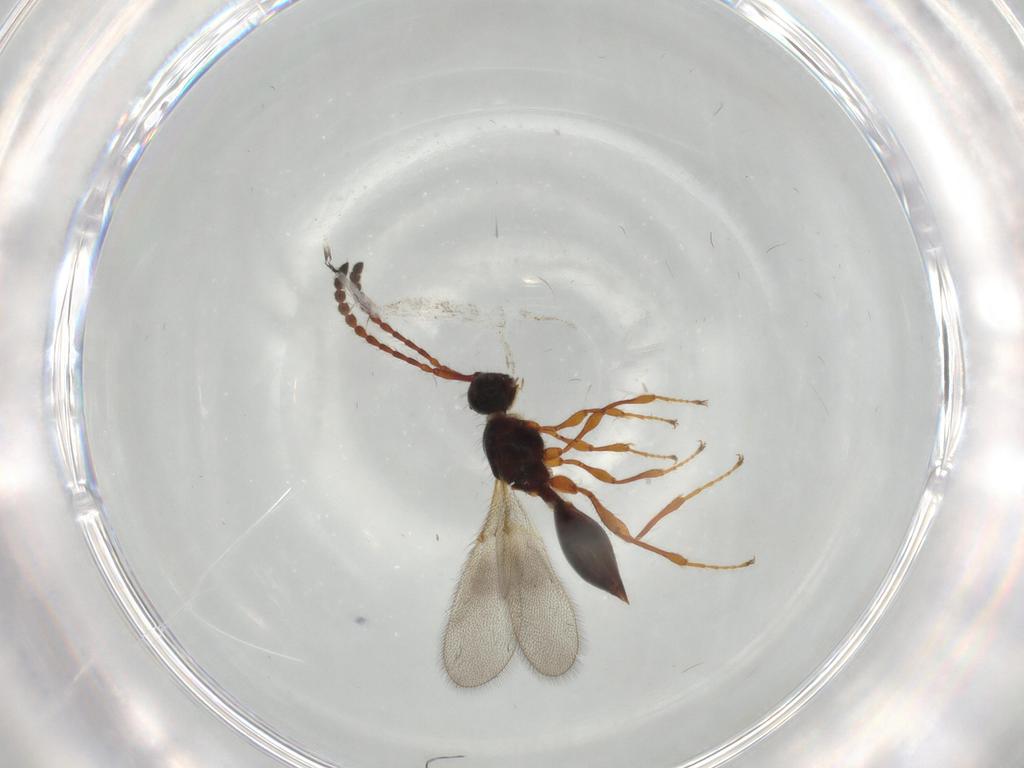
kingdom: Animalia
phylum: Arthropoda
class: Insecta
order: Hymenoptera
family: Diapriidae
